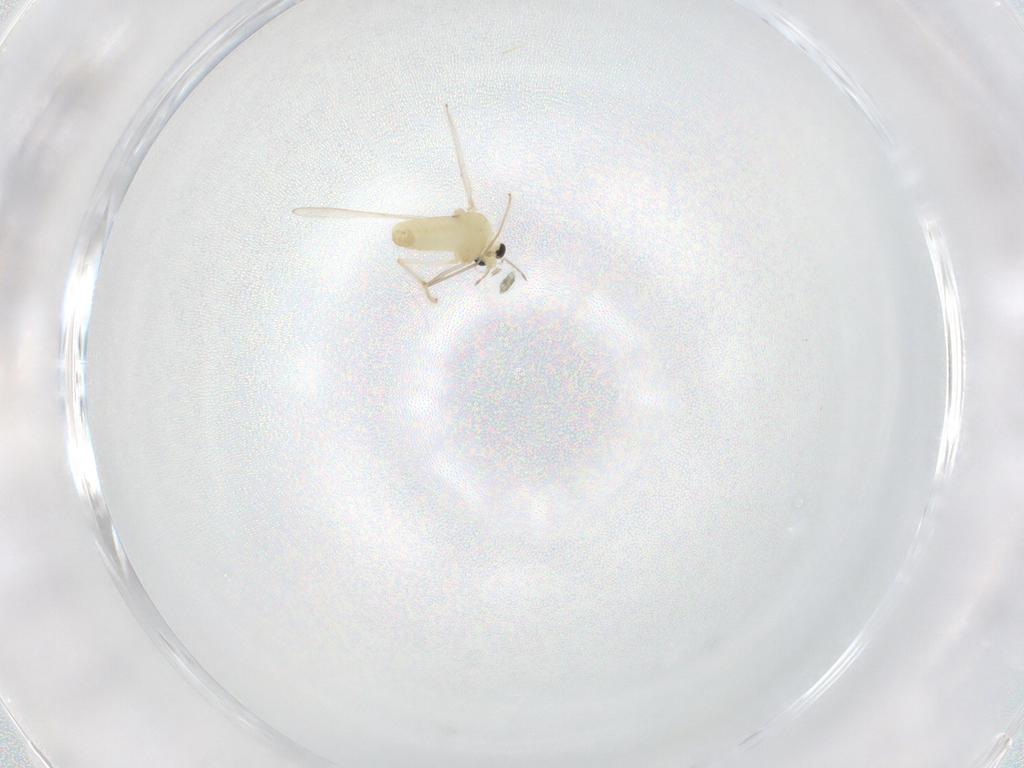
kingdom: Animalia
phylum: Arthropoda
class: Insecta
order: Diptera
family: Chironomidae
